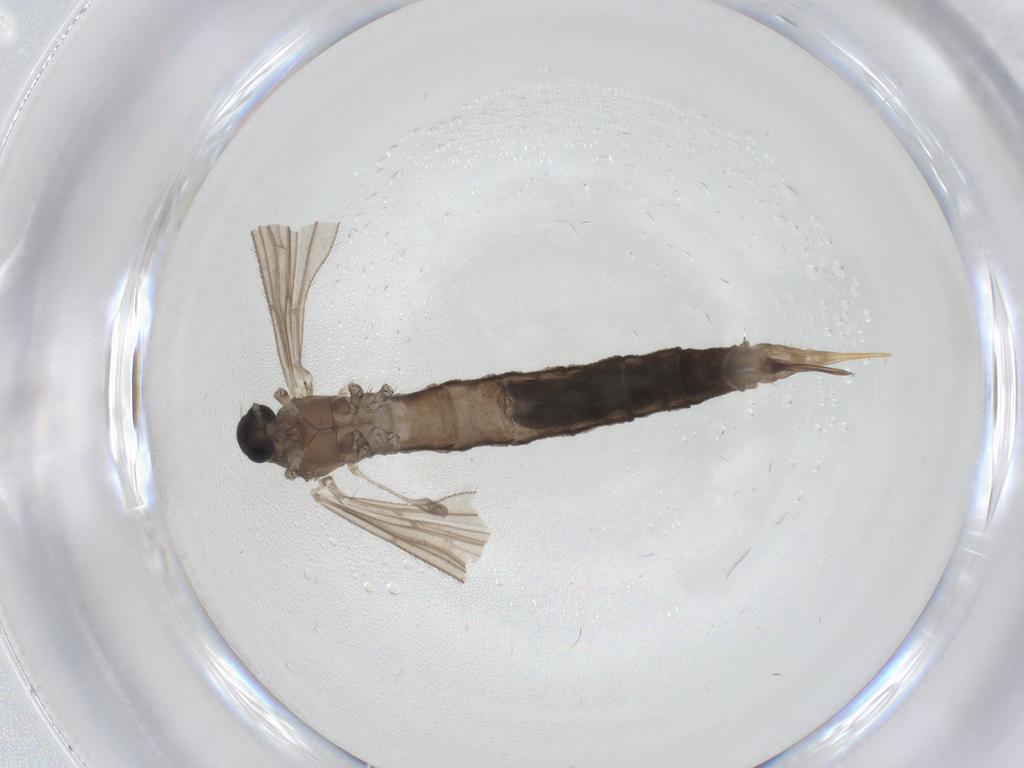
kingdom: Animalia
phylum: Arthropoda
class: Insecta
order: Diptera
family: Limoniidae
